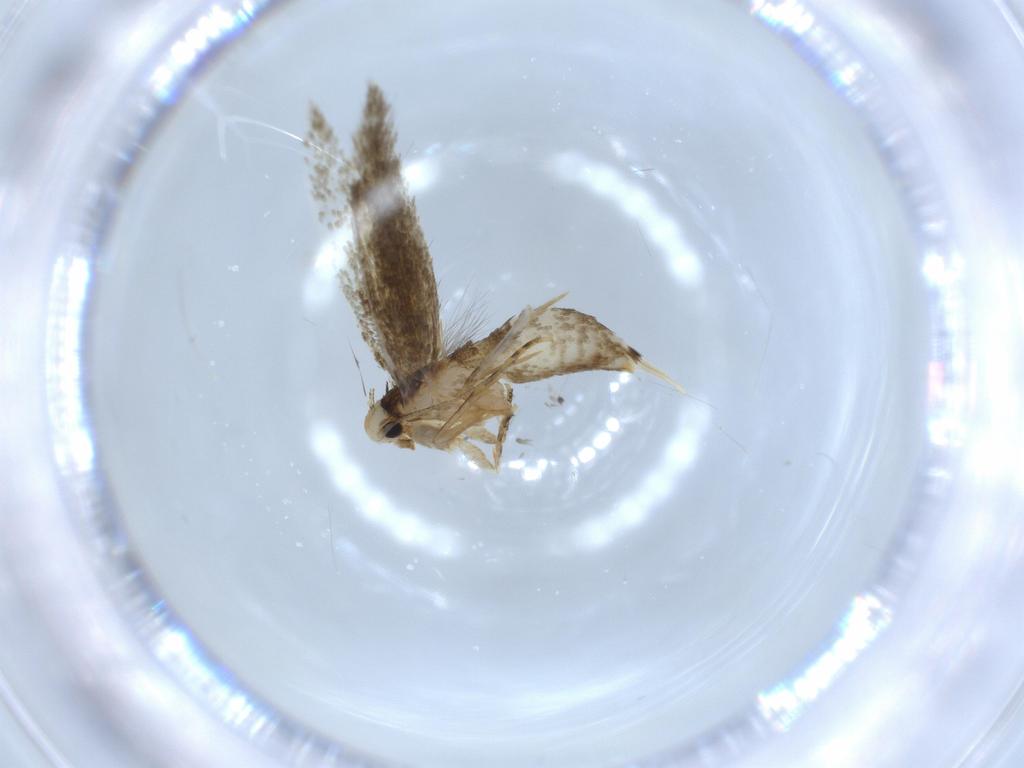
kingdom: Animalia
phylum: Arthropoda
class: Insecta
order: Lepidoptera
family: Tineidae
